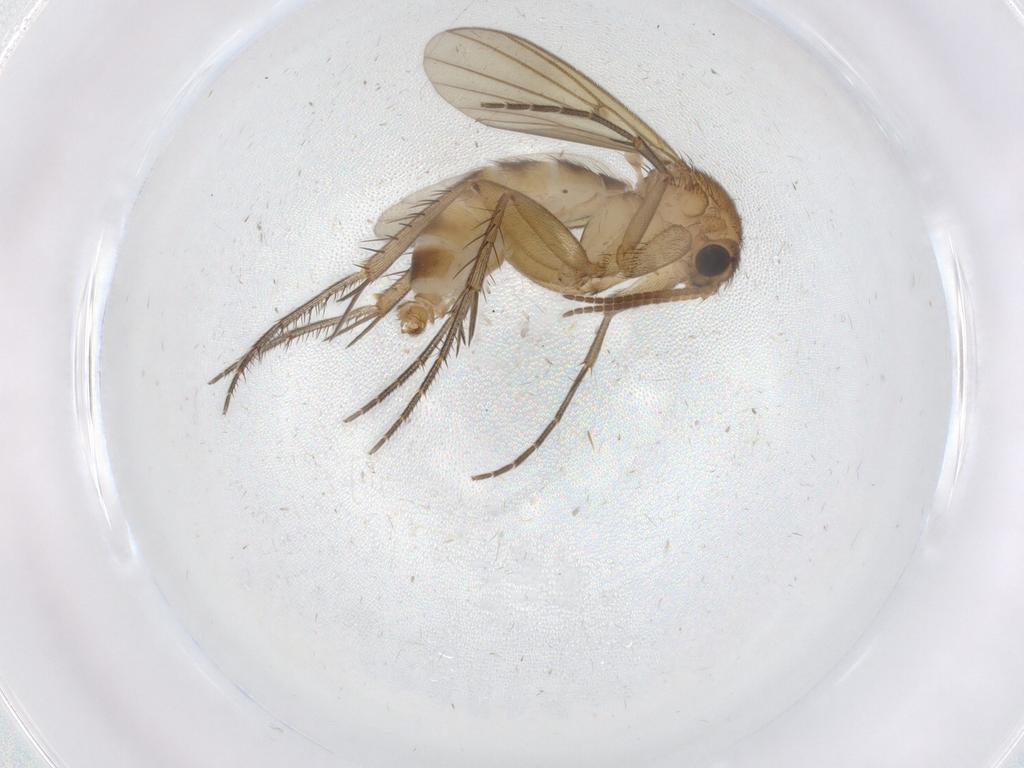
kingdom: Animalia
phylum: Arthropoda
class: Insecta
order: Diptera
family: Mycetophilidae
